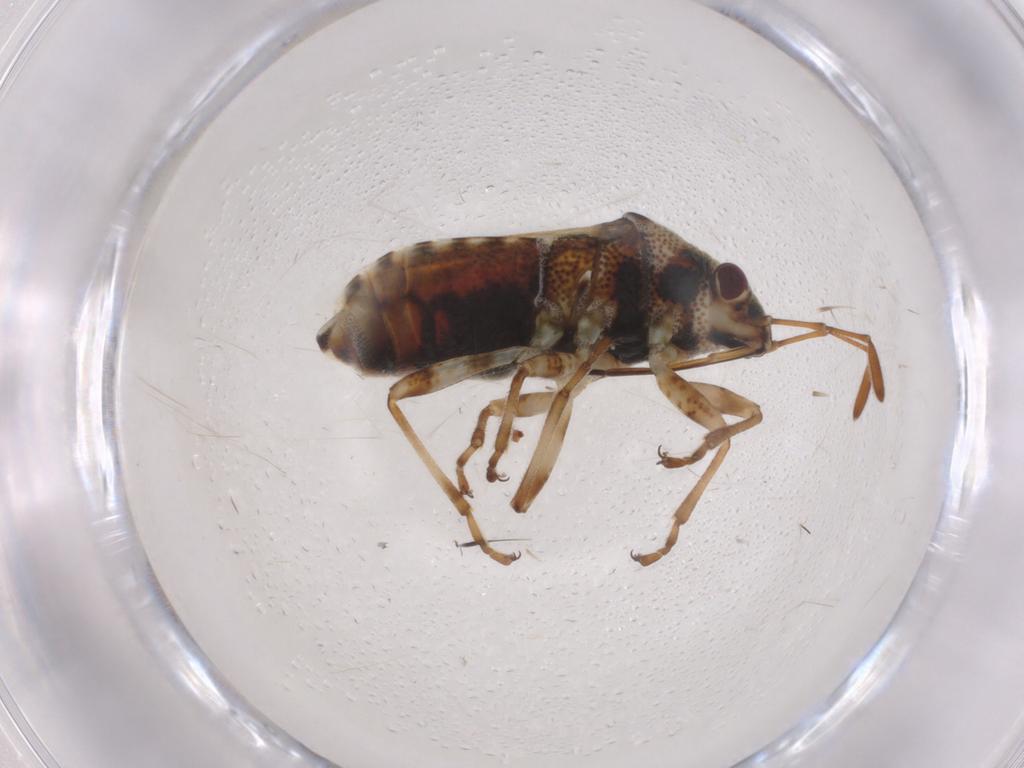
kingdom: Animalia
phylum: Arthropoda
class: Insecta
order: Hemiptera
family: Lygaeidae
